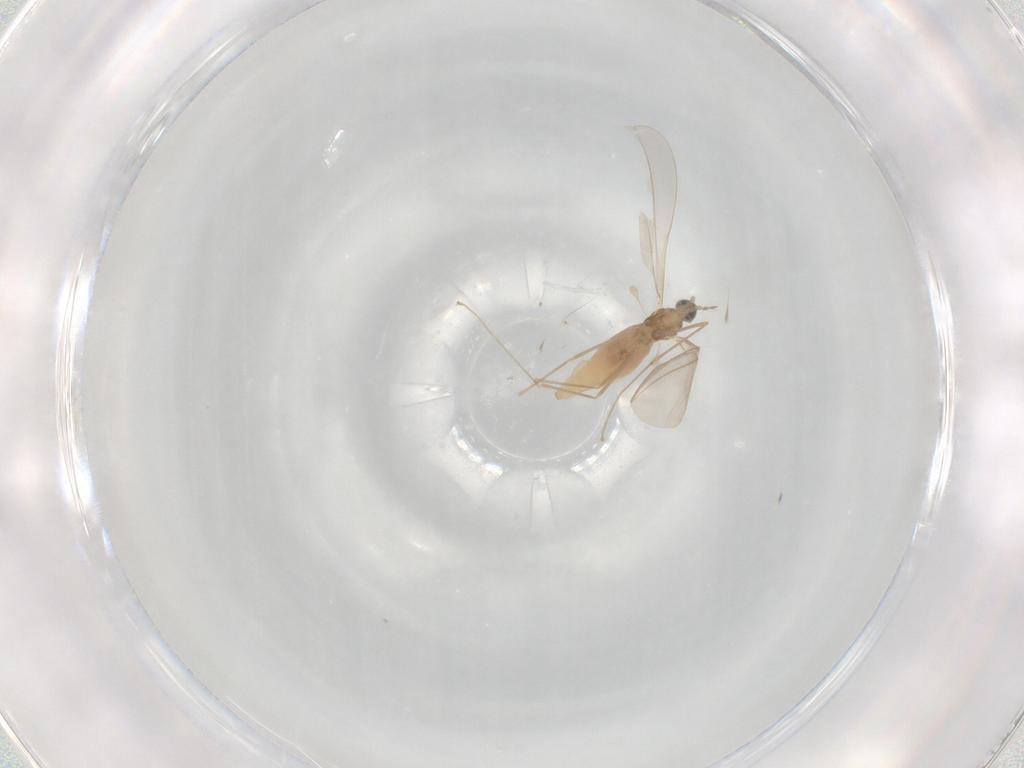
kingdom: Animalia
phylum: Arthropoda
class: Insecta
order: Diptera
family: Cecidomyiidae
